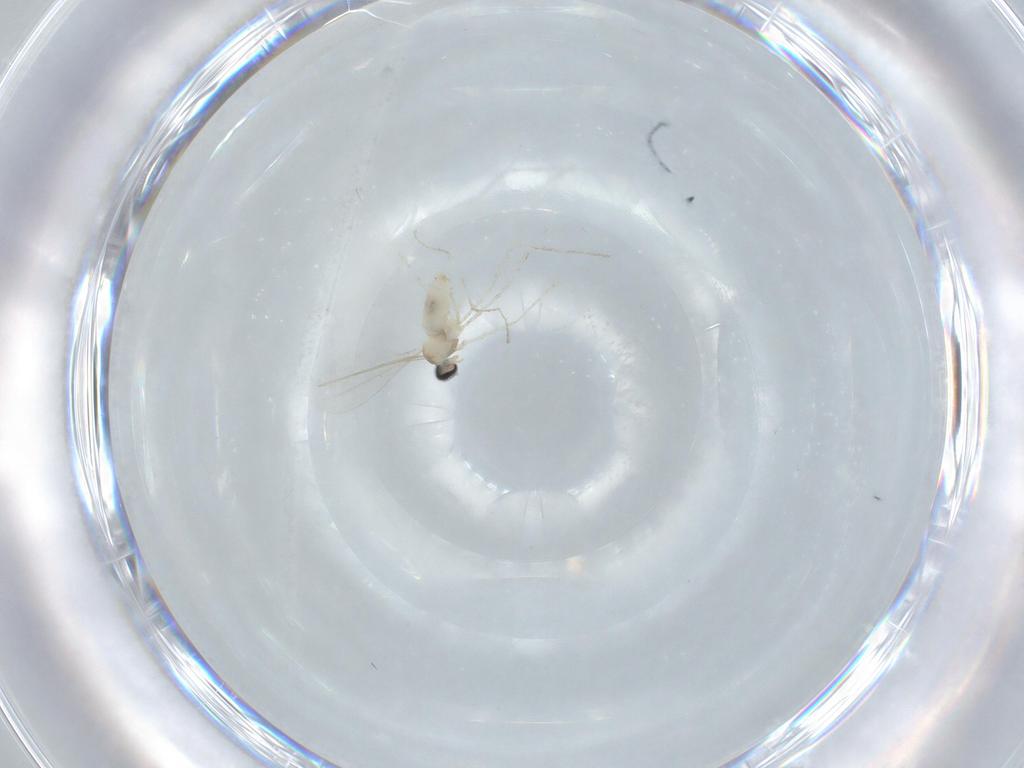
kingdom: Animalia
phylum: Arthropoda
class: Insecta
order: Diptera
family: Cecidomyiidae
